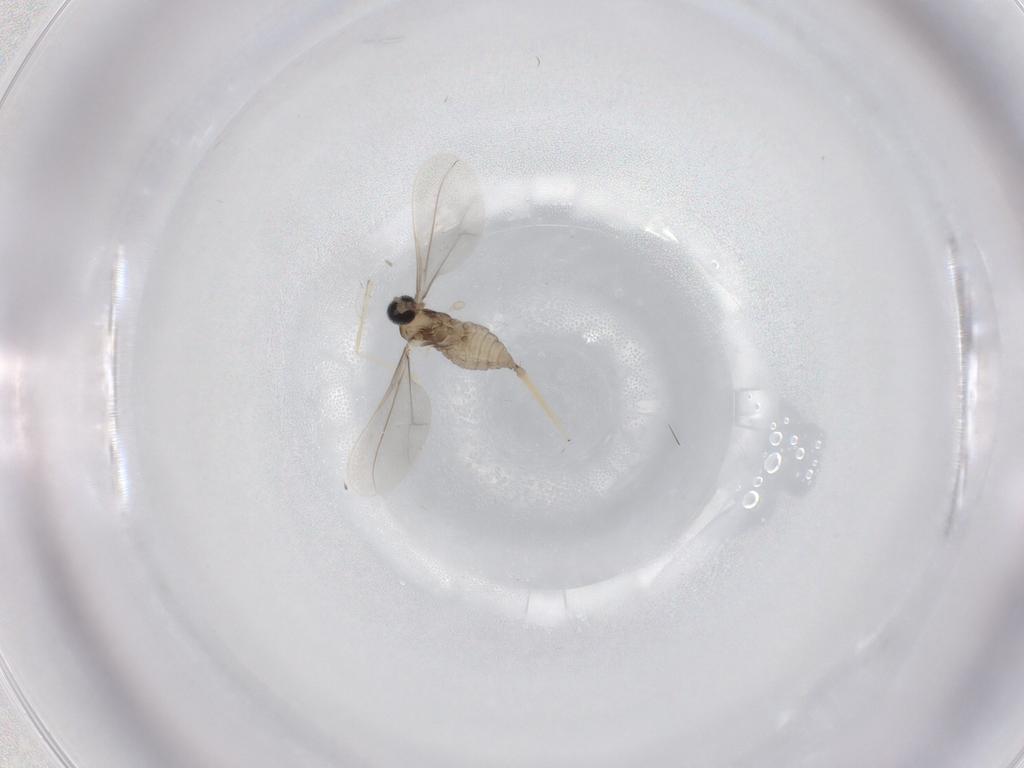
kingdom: Animalia
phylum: Arthropoda
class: Insecta
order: Diptera
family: Cecidomyiidae
